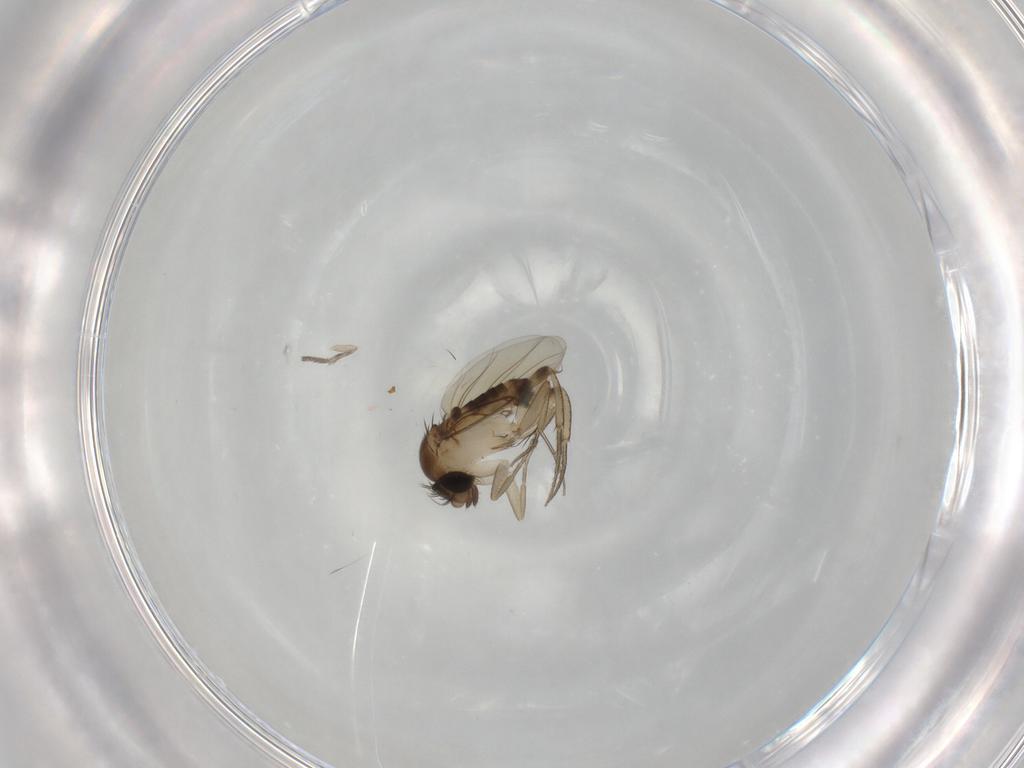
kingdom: Animalia
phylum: Arthropoda
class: Insecta
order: Diptera
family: Phoridae
